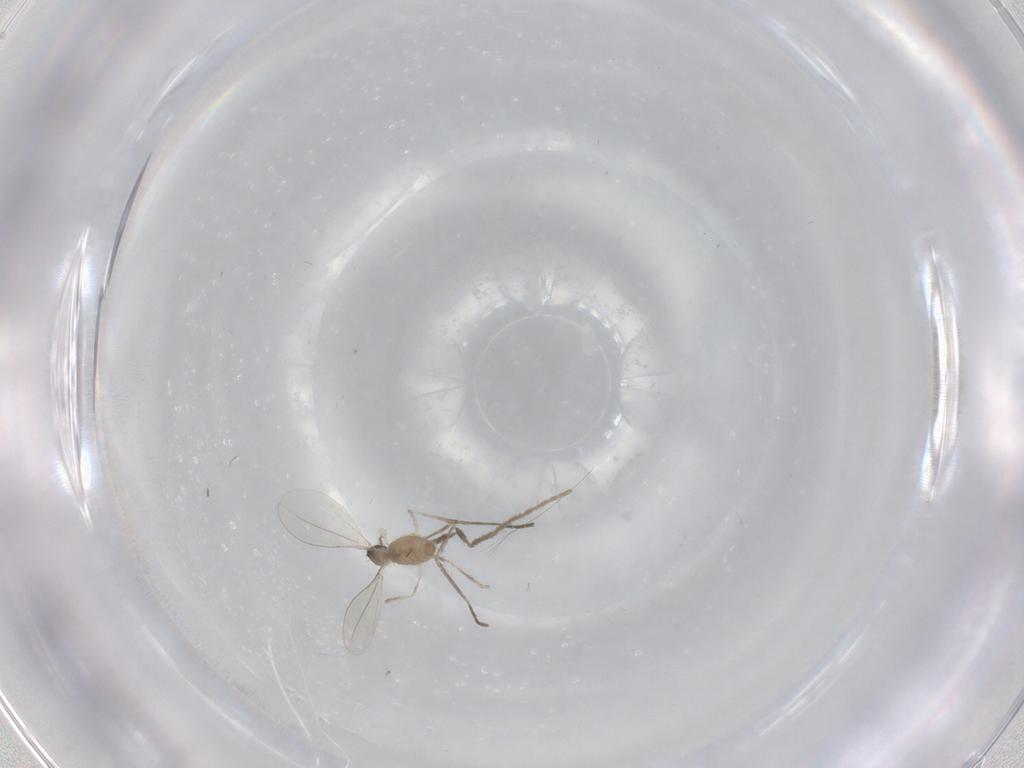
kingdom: Animalia
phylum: Arthropoda
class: Insecta
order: Diptera
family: Cecidomyiidae
